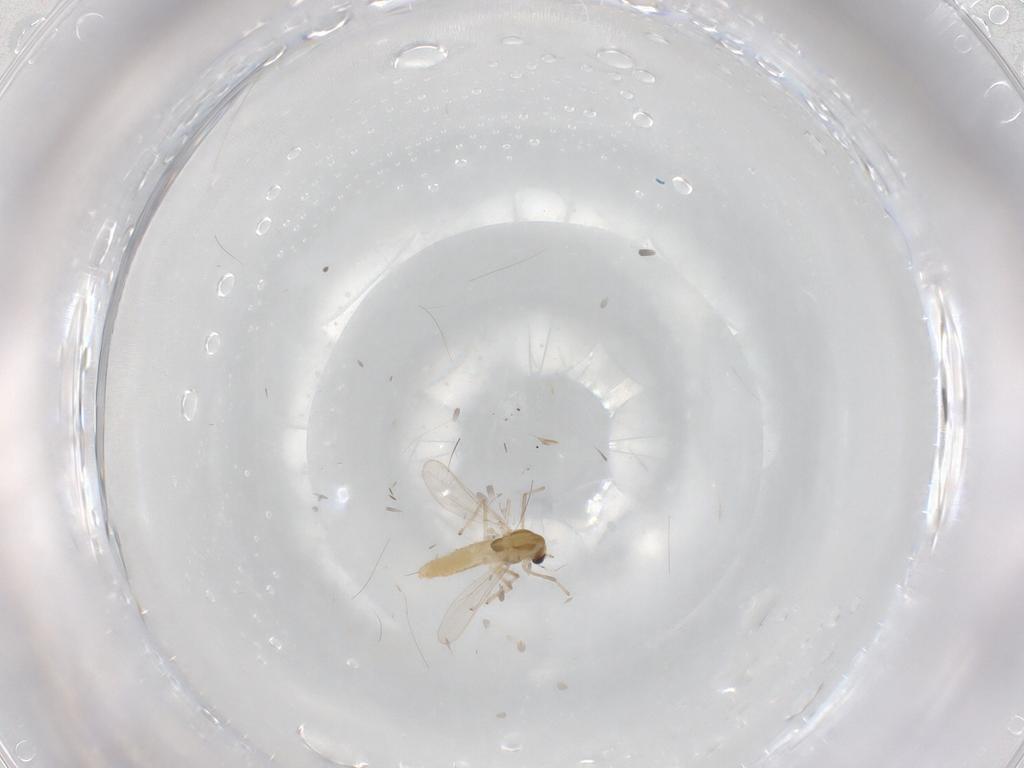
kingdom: Animalia
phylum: Arthropoda
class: Insecta
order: Diptera
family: Chironomidae
